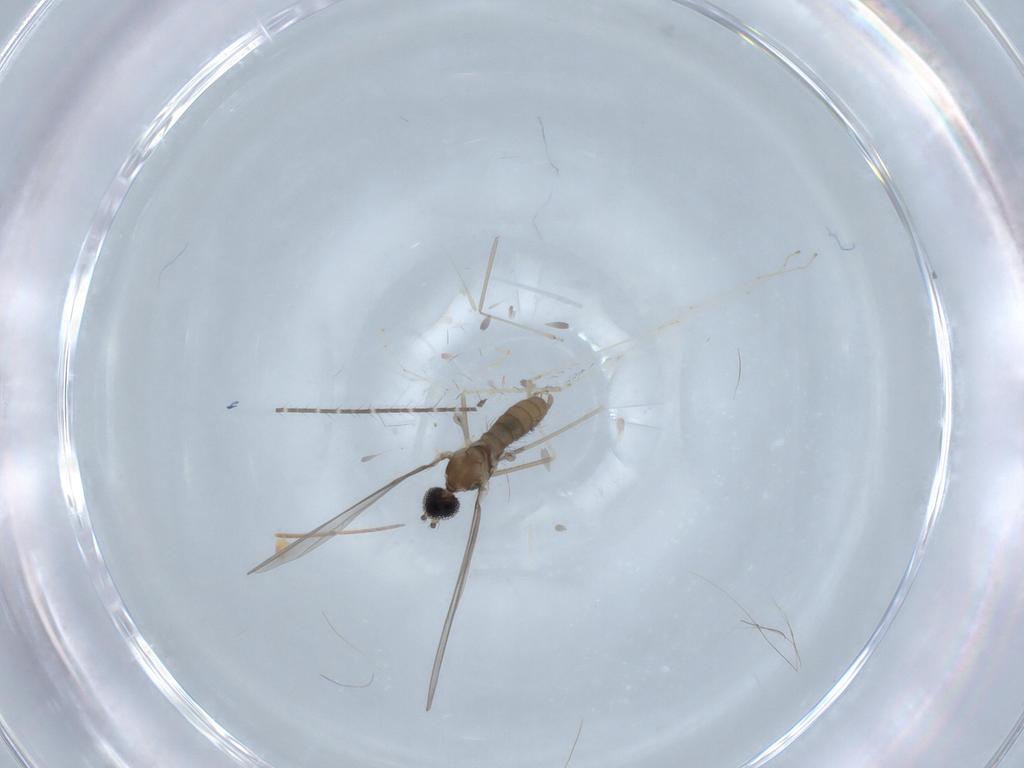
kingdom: Animalia
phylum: Arthropoda
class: Insecta
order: Diptera
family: Cecidomyiidae
